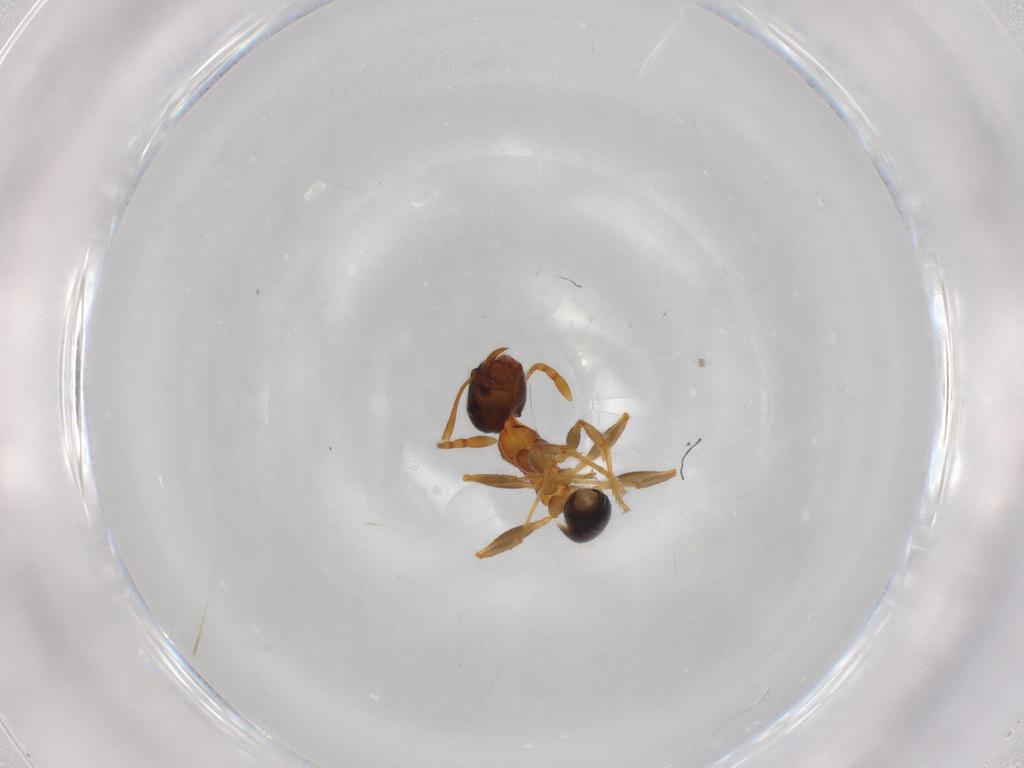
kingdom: Animalia
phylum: Arthropoda
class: Insecta
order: Hymenoptera
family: Formicidae
